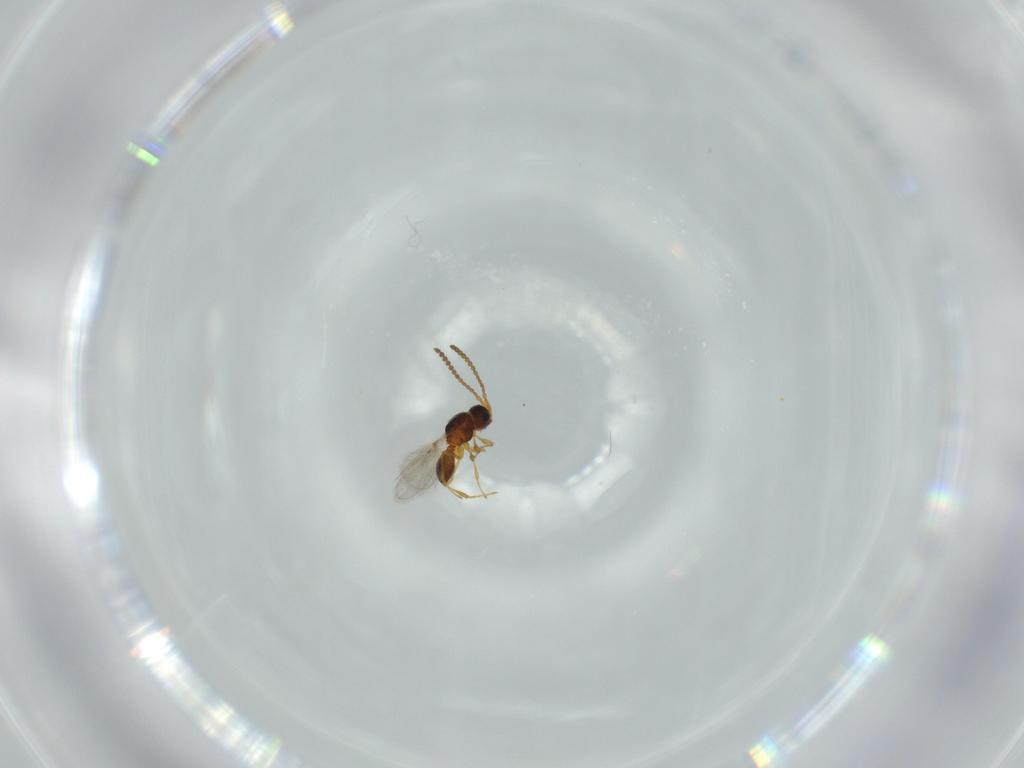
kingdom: Animalia
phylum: Arthropoda
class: Insecta
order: Hymenoptera
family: Diapriidae
